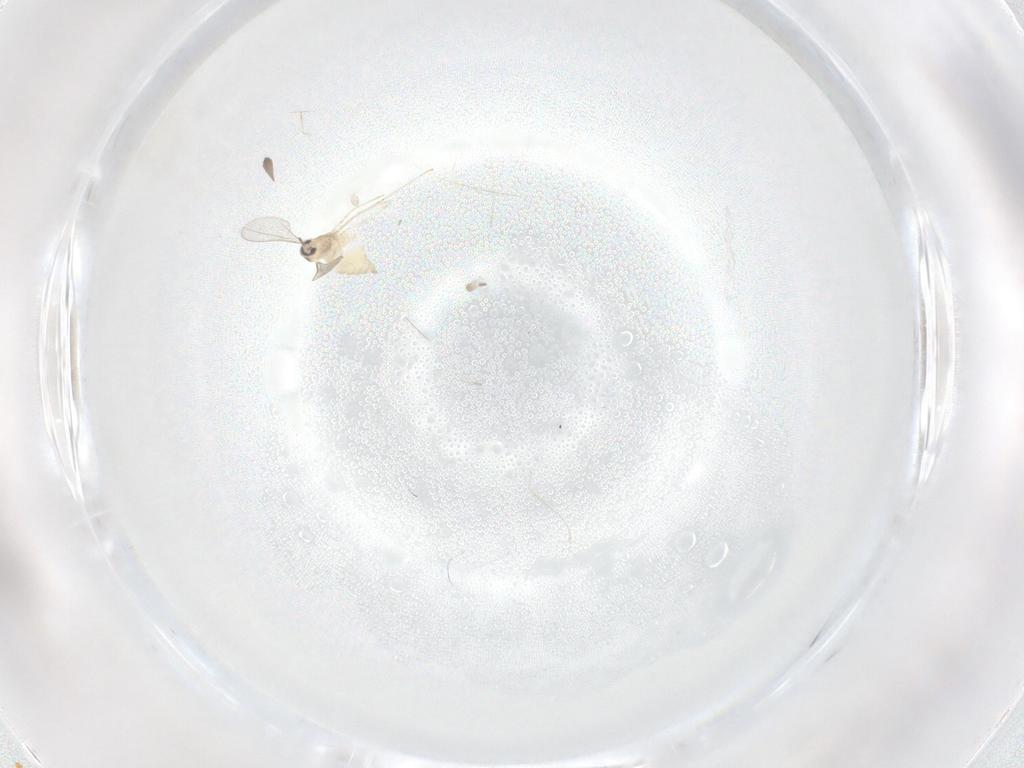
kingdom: Animalia
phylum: Arthropoda
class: Insecta
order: Diptera
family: Cecidomyiidae
